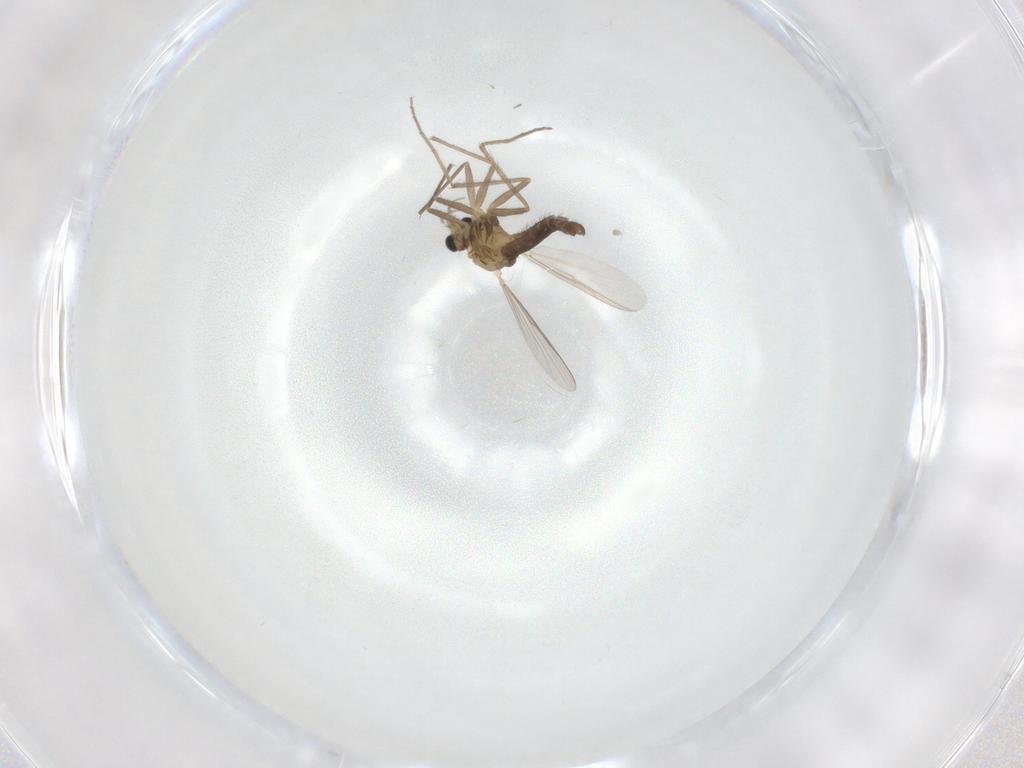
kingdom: Animalia
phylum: Arthropoda
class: Insecta
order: Diptera
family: Chironomidae
